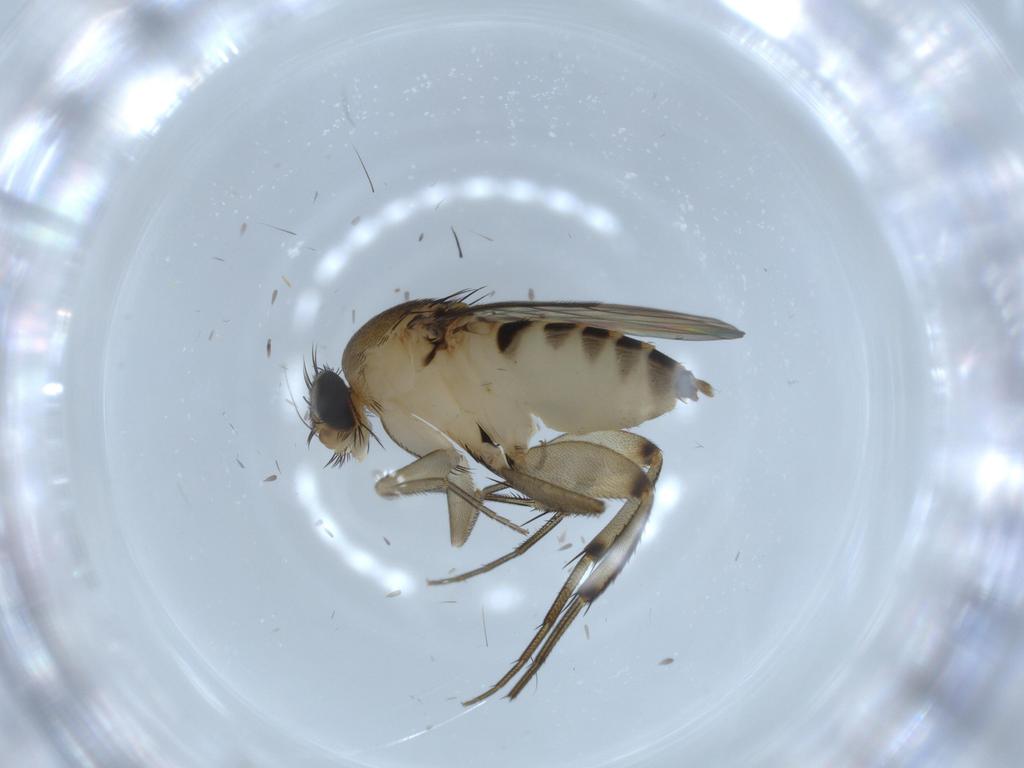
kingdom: Animalia
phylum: Arthropoda
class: Insecta
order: Diptera
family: Phoridae
